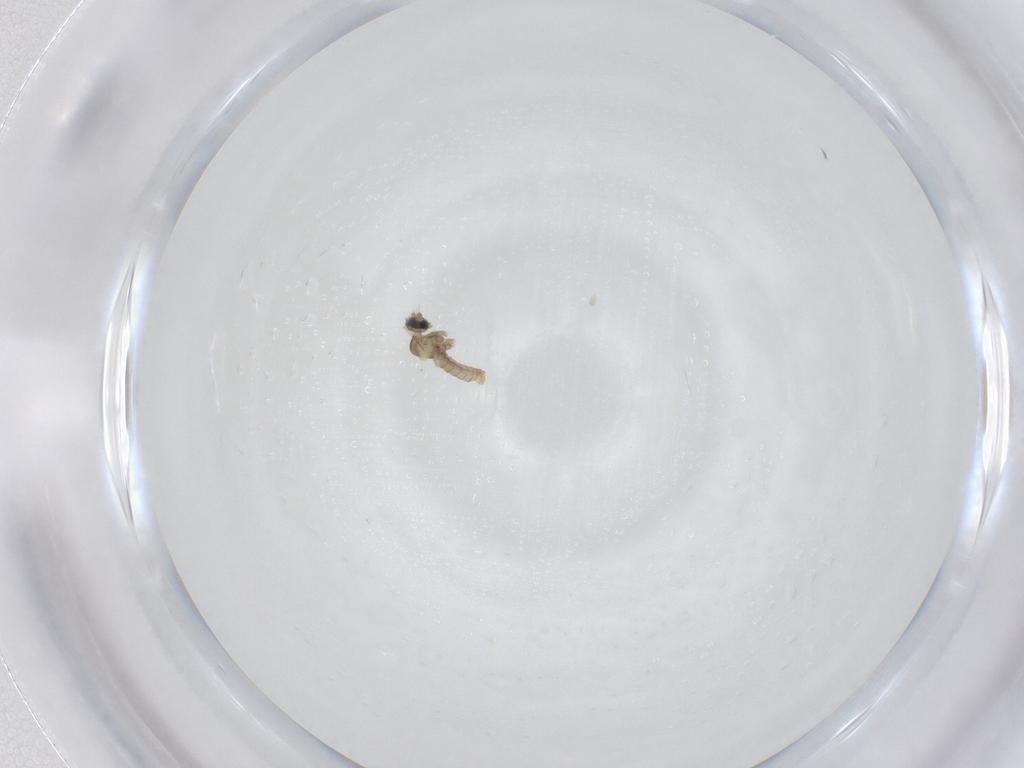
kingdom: Animalia
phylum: Arthropoda
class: Insecta
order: Diptera
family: Cecidomyiidae
